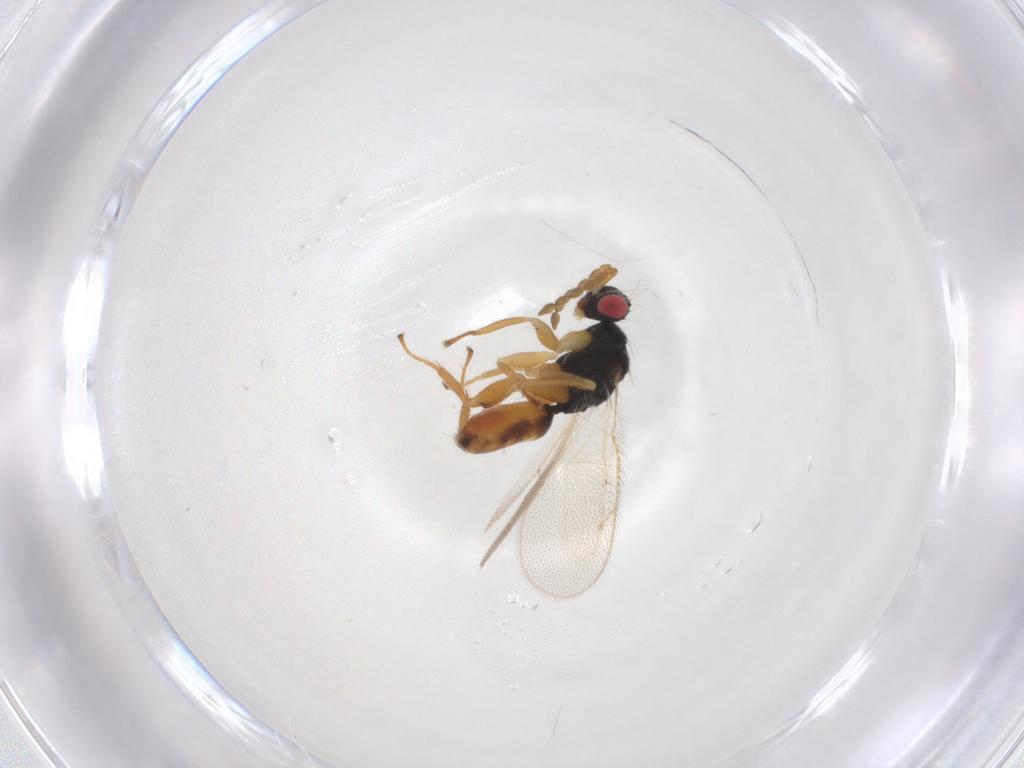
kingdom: Animalia
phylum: Arthropoda
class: Insecta
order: Hymenoptera
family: Eulophidae
